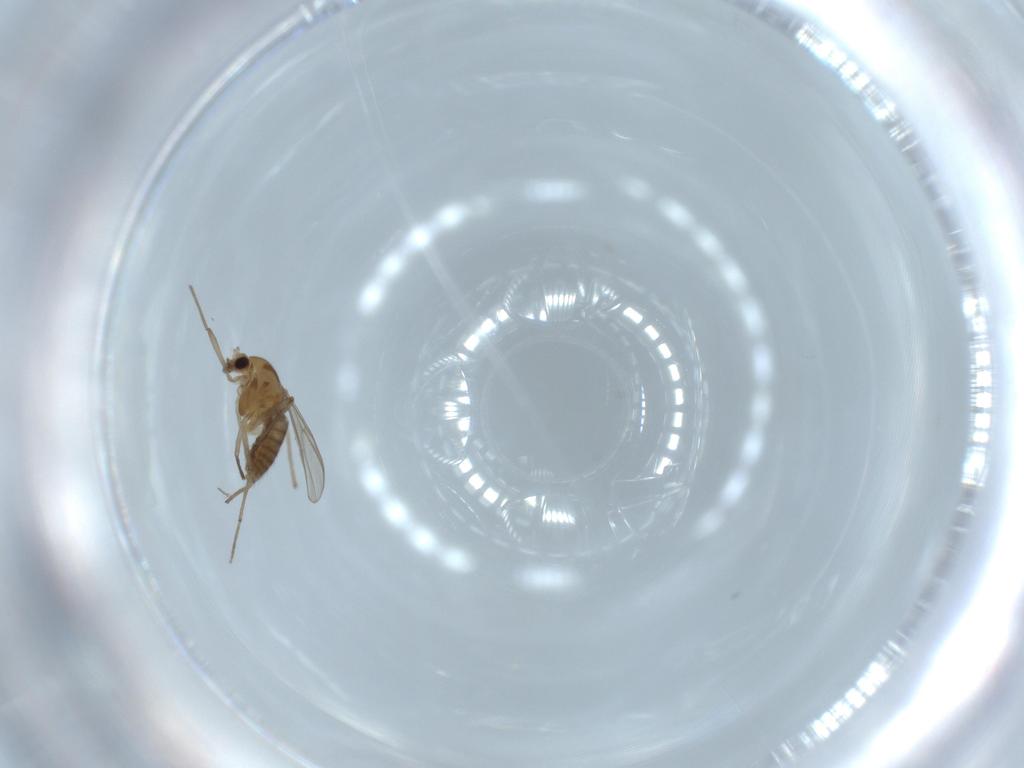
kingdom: Animalia
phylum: Arthropoda
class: Insecta
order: Diptera
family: Chironomidae
